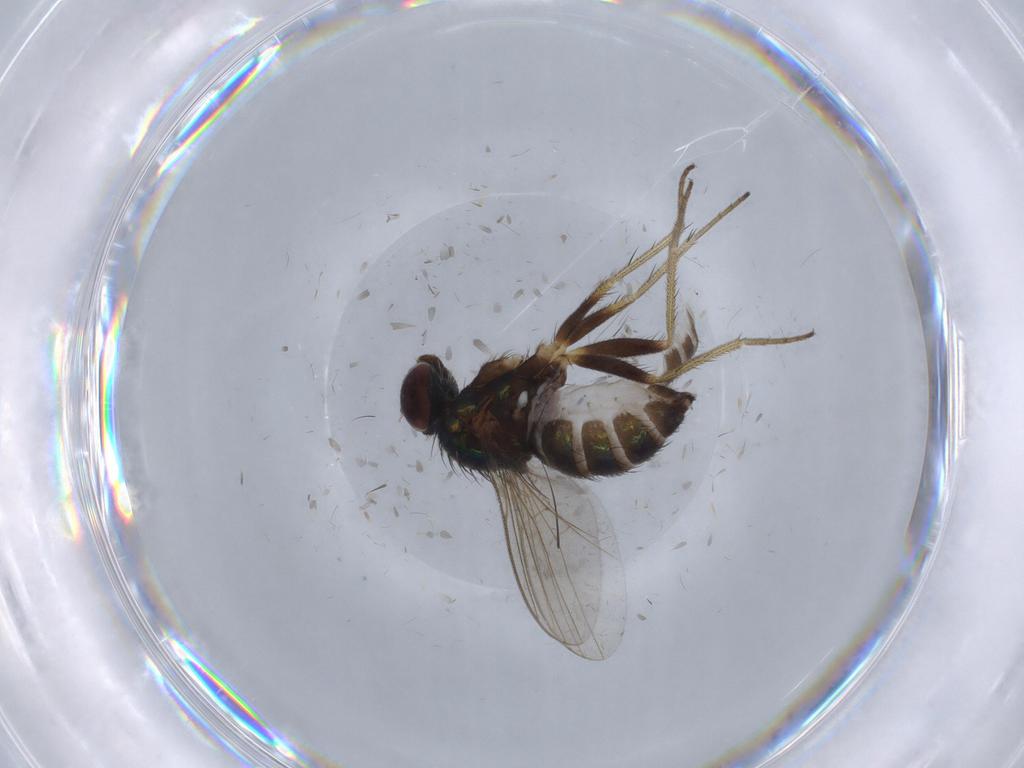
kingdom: Animalia
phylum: Arthropoda
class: Insecta
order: Diptera
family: Dolichopodidae
